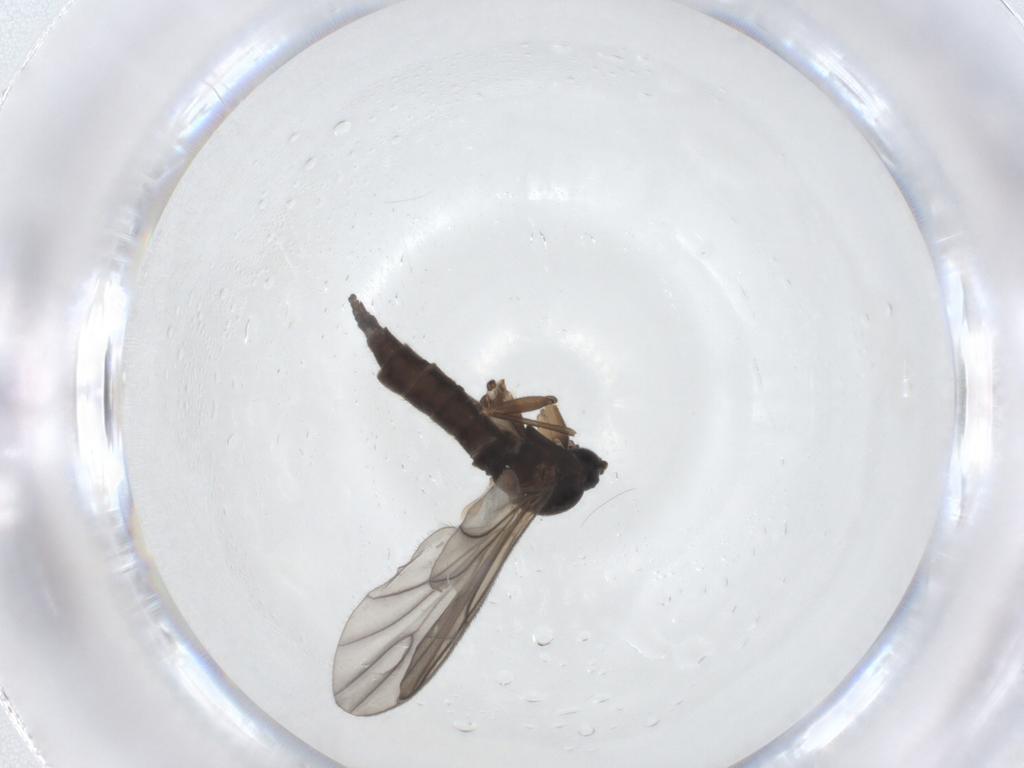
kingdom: Animalia
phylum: Arthropoda
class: Insecta
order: Diptera
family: Sciaridae
